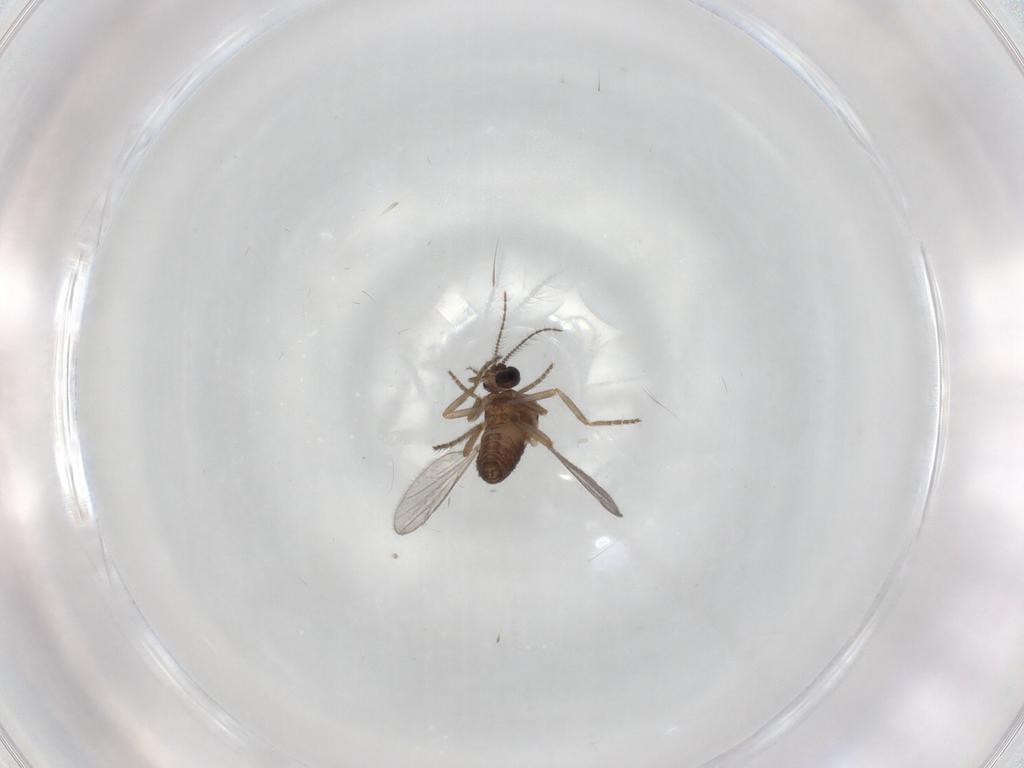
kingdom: Animalia
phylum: Arthropoda
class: Insecta
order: Diptera
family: Ceratopogonidae
